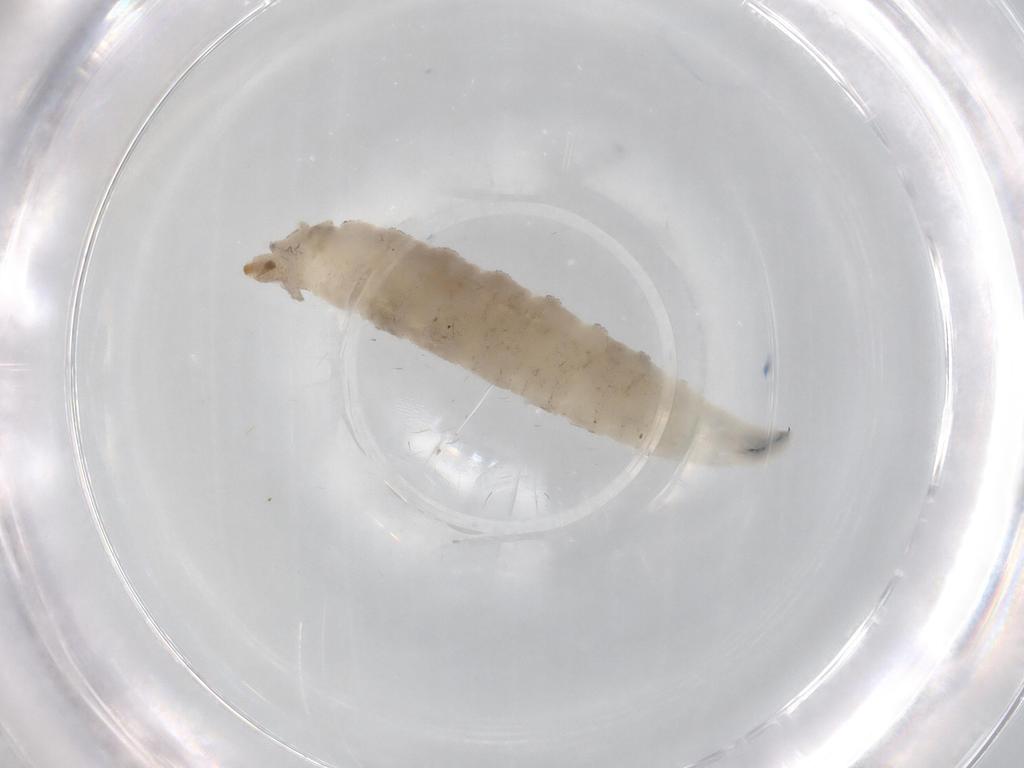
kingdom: Animalia
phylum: Arthropoda
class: Insecta
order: Diptera
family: Drosophilidae
